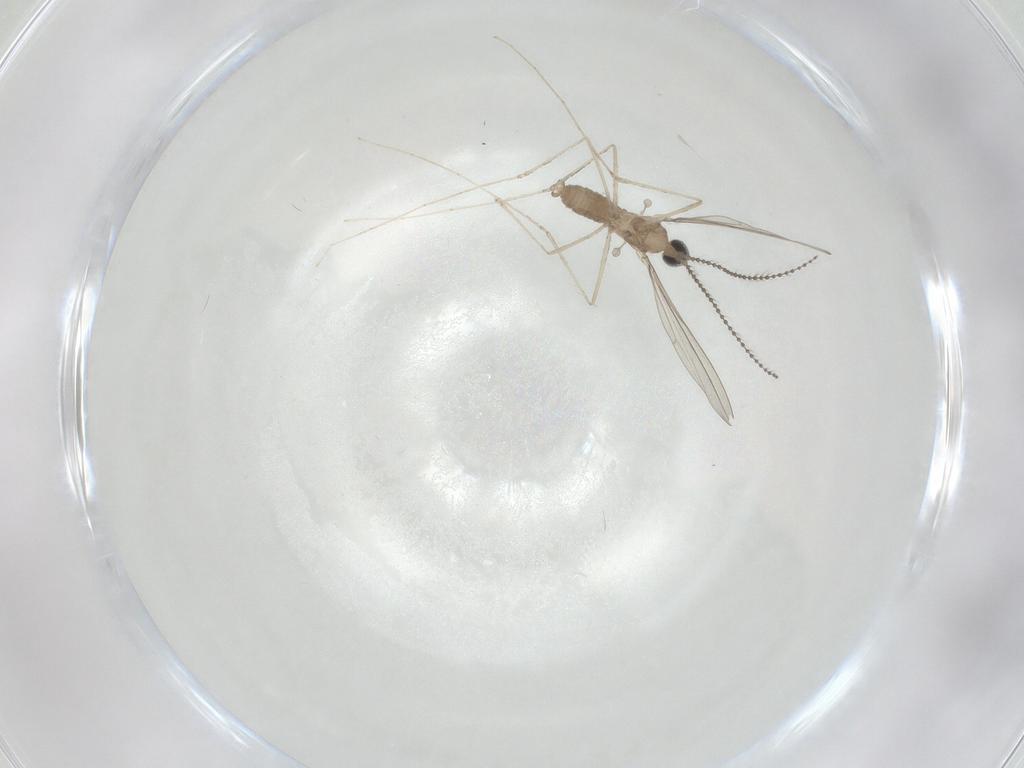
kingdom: Animalia
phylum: Arthropoda
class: Insecta
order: Diptera
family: Cecidomyiidae
